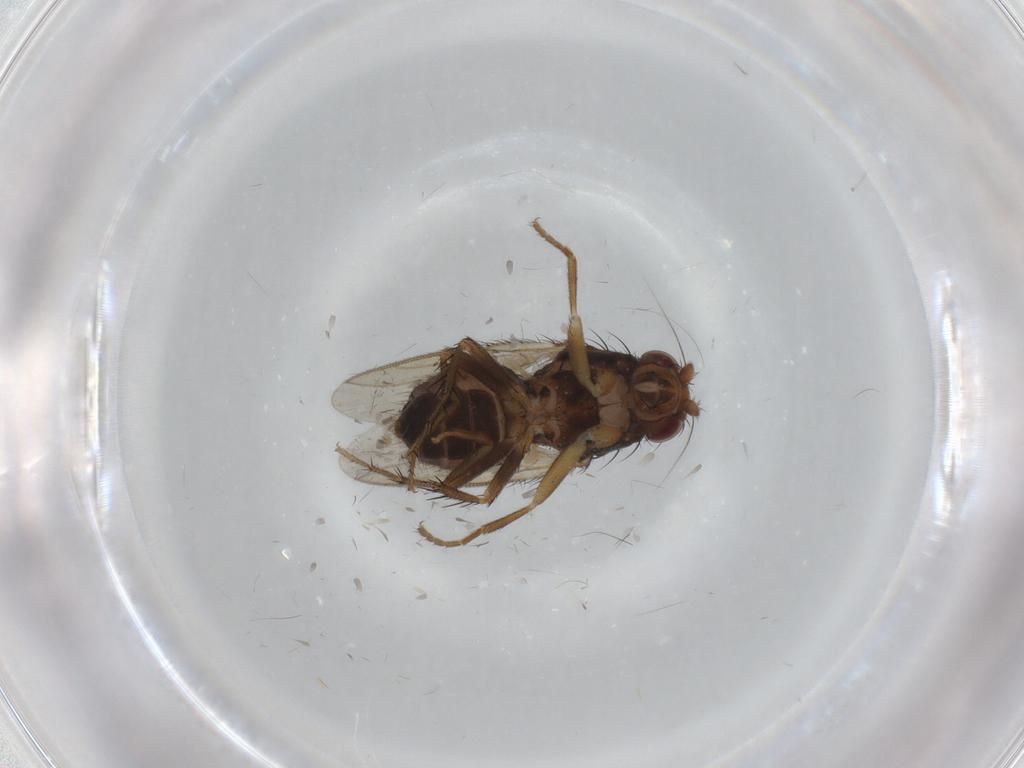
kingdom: Animalia
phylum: Arthropoda
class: Insecta
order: Diptera
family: Sphaeroceridae
